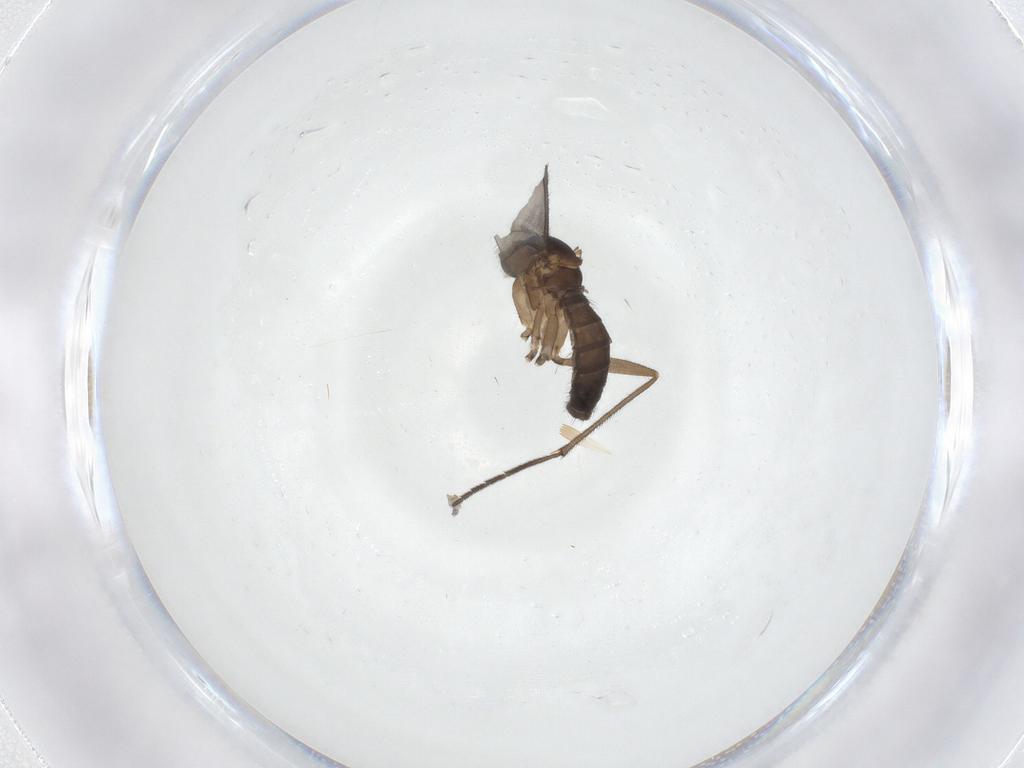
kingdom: Animalia
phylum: Arthropoda
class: Insecta
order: Diptera
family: Sciaridae
